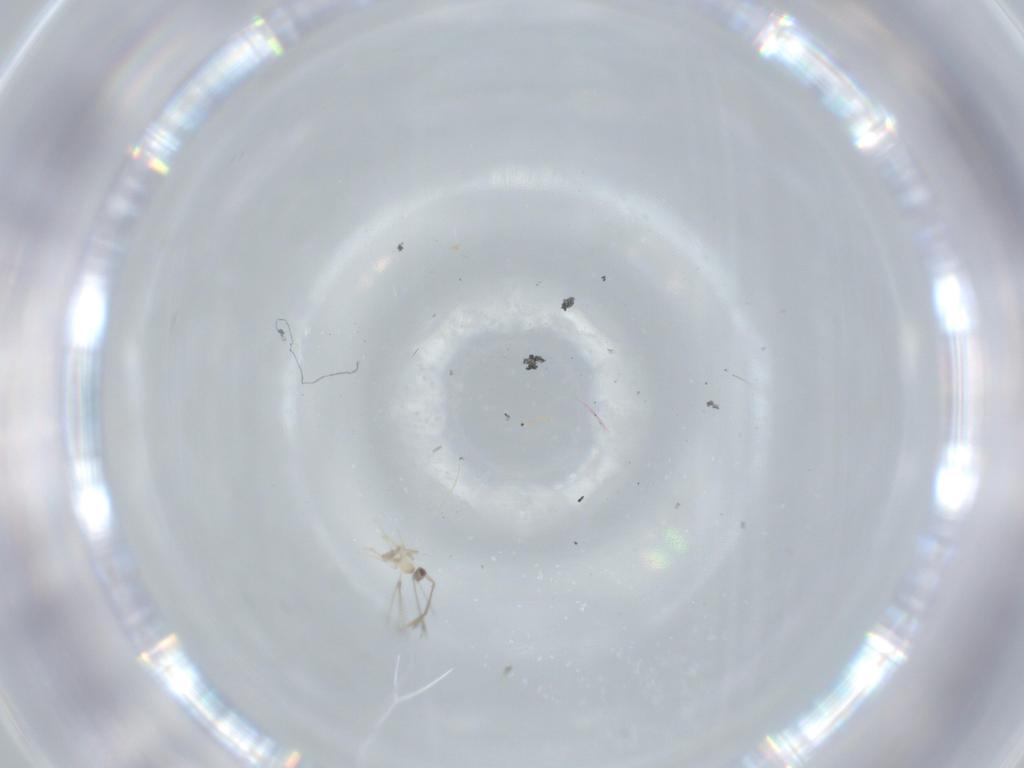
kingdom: Animalia
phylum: Arthropoda
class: Insecta
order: Hymenoptera
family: Mymaridae
